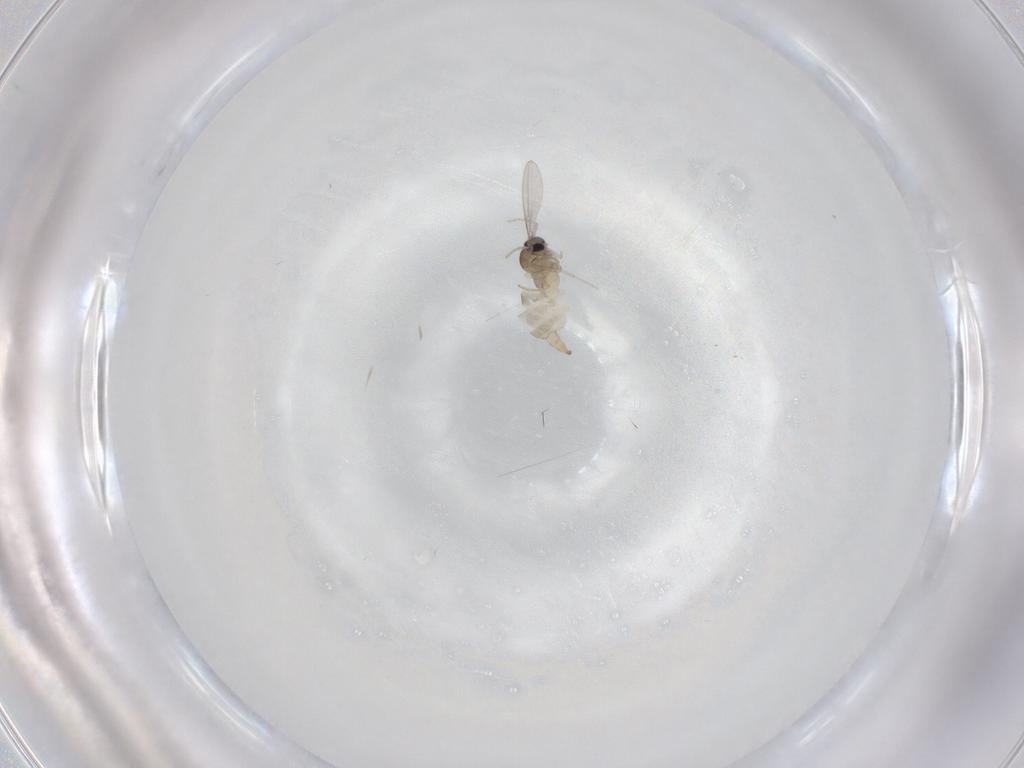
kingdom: Animalia
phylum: Arthropoda
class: Insecta
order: Diptera
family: Cecidomyiidae
